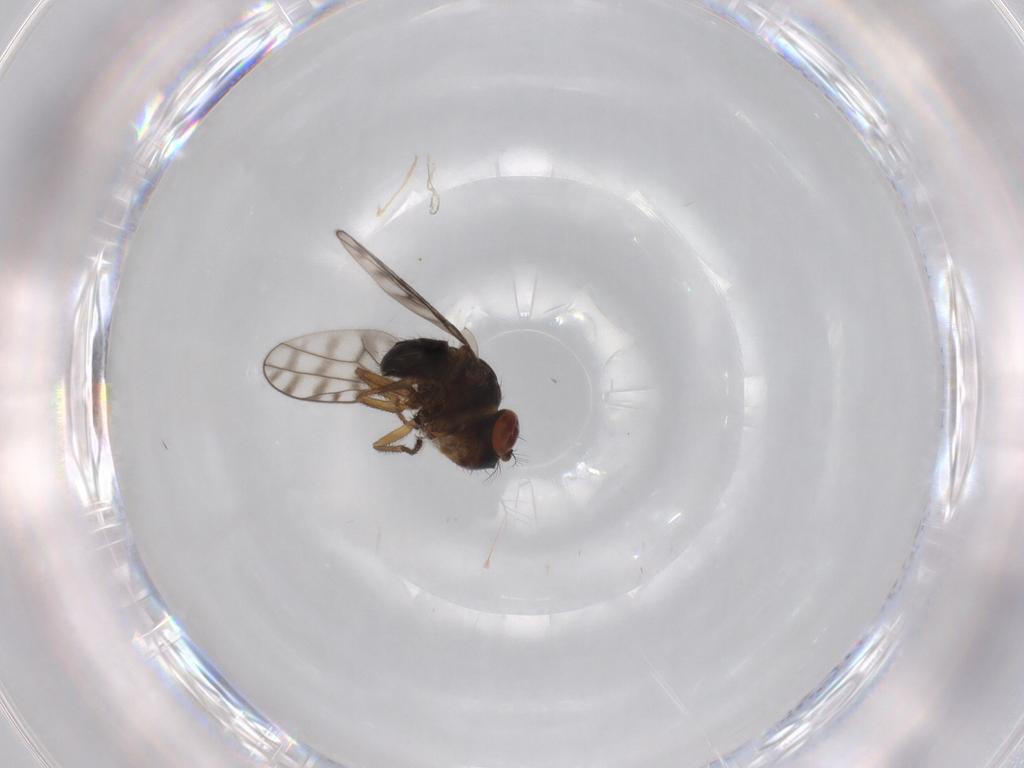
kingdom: Animalia
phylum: Arthropoda
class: Insecta
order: Diptera
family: Ephydridae
